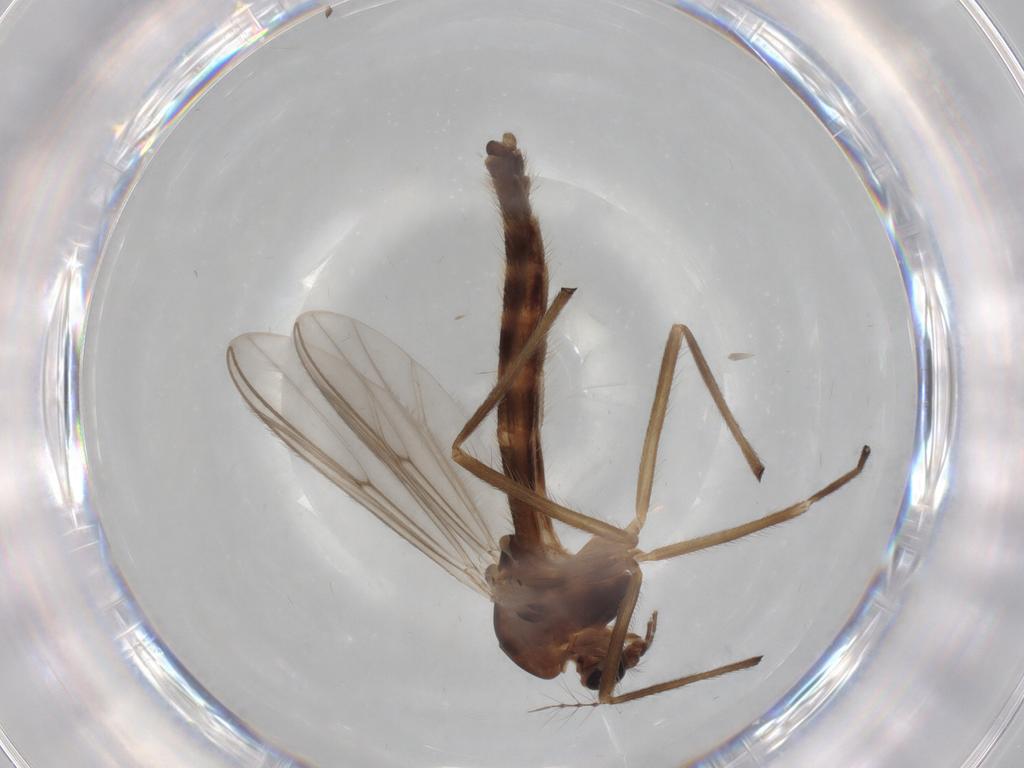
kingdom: Animalia
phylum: Arthropoda
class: Insecta
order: Diptera
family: Chironomidae
